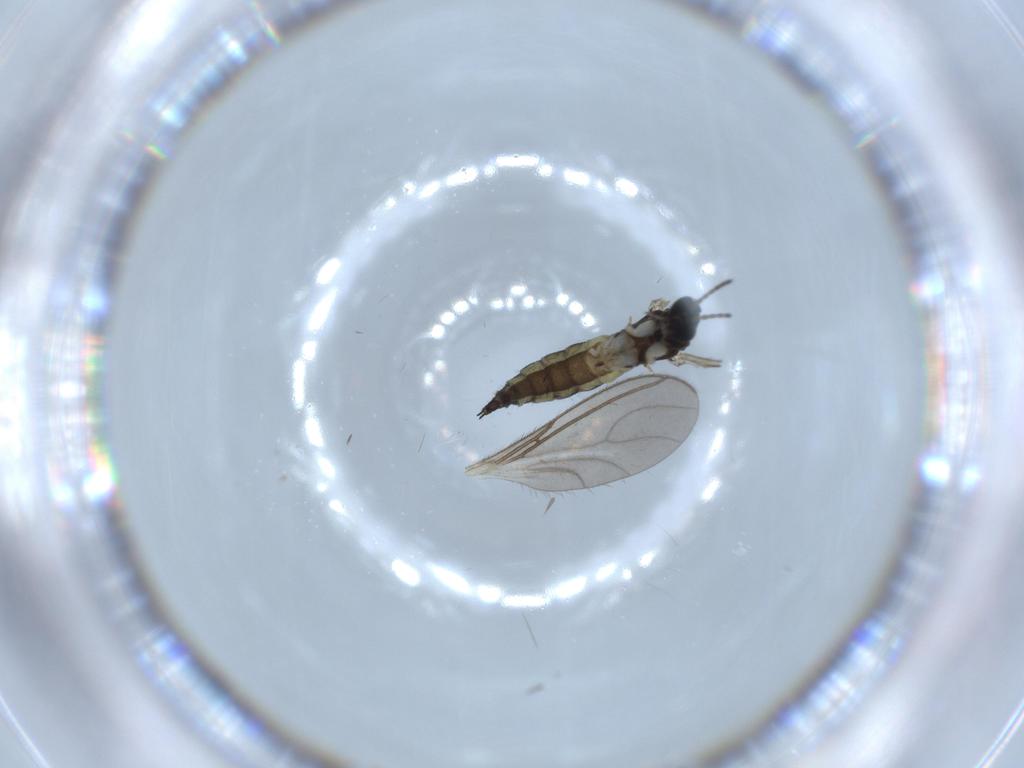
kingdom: Animalia
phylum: Arthropoda
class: Insecta
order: Diptera
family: Sciaridae
